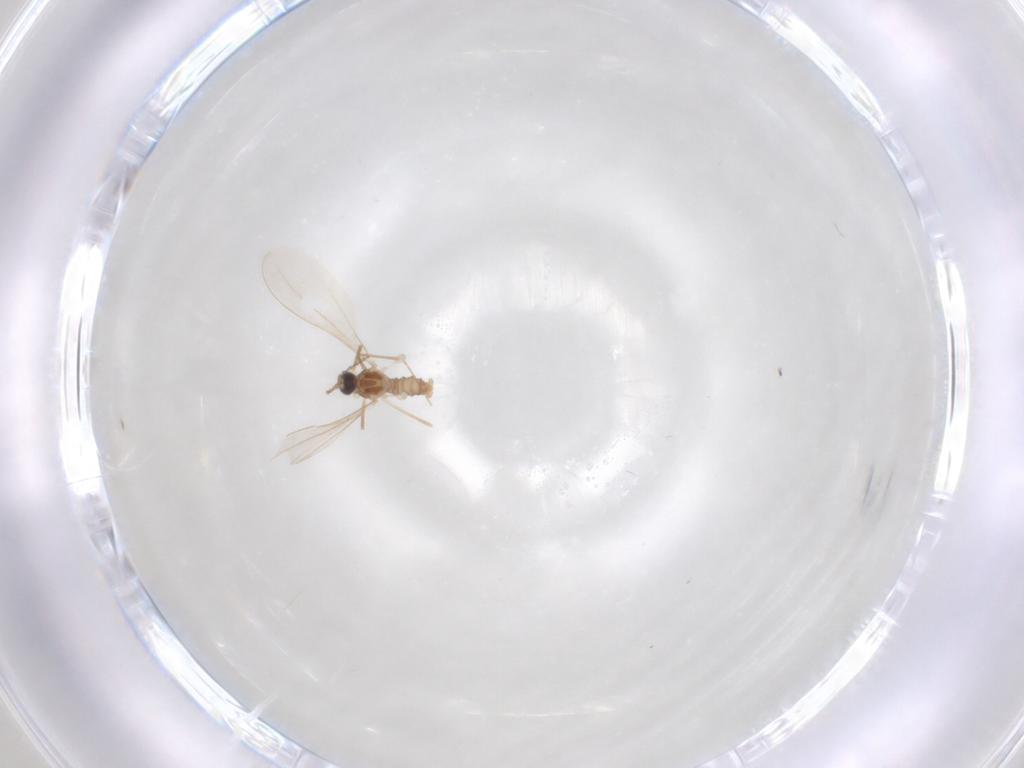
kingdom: Animalia
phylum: Arthropoda
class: Insecta
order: Diptera
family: Cecidomyiidae
